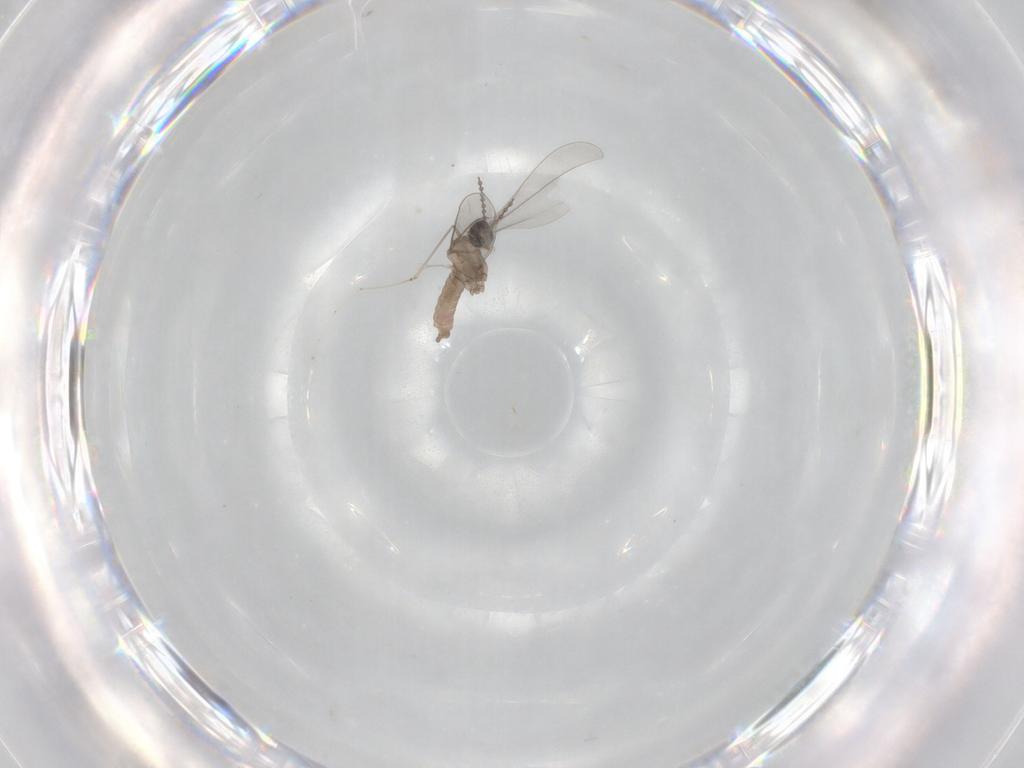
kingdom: Animalia
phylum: Arthropoda
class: Insecta
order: Diptera
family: Cecidomyiidae
